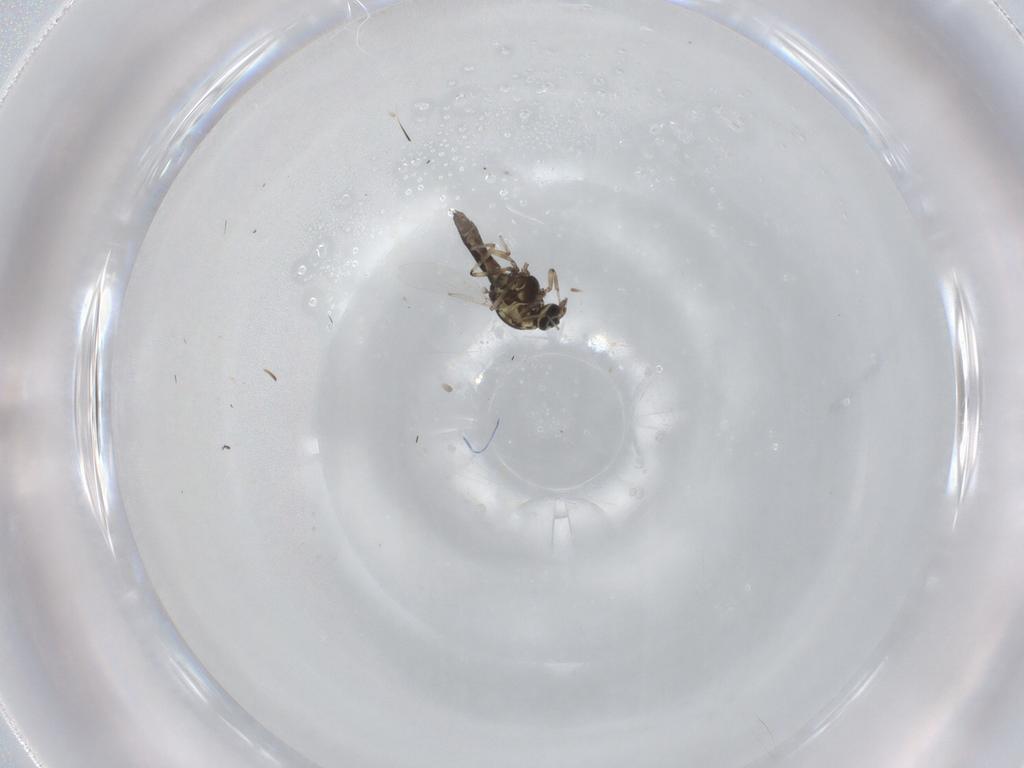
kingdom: Animalia
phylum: Arthropoda
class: Insecta
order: Diptera
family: Ceratopogonidae
